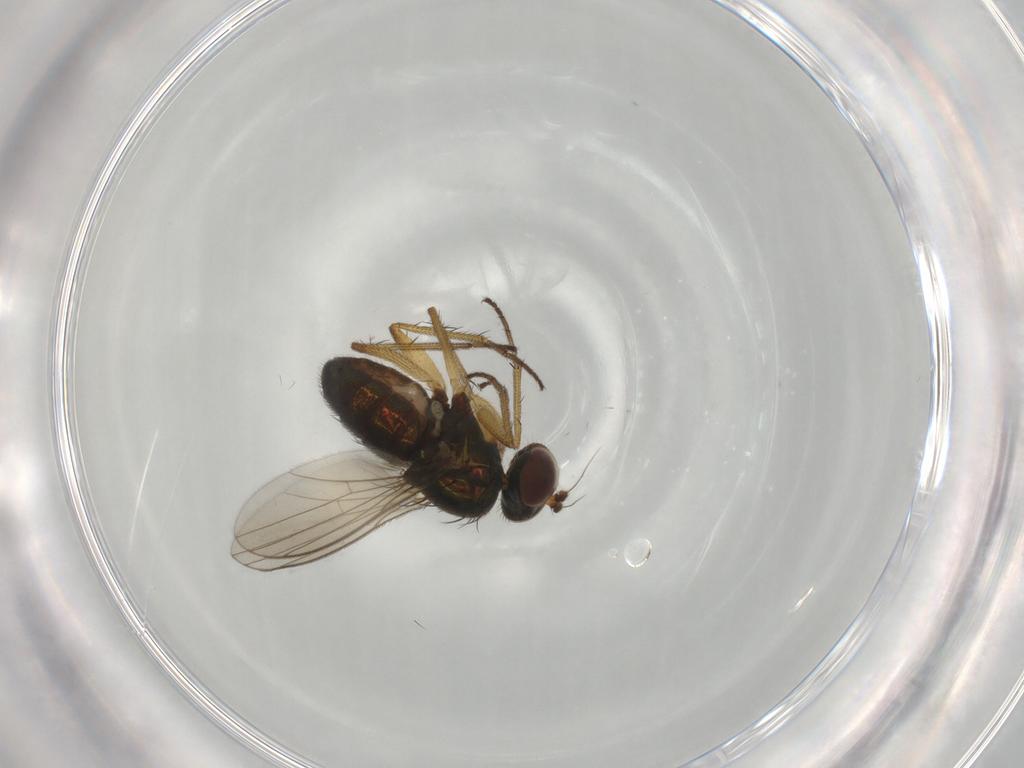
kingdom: Animalia
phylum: Arthropoda
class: Insecta
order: Diptera
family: Dolichopodidae
